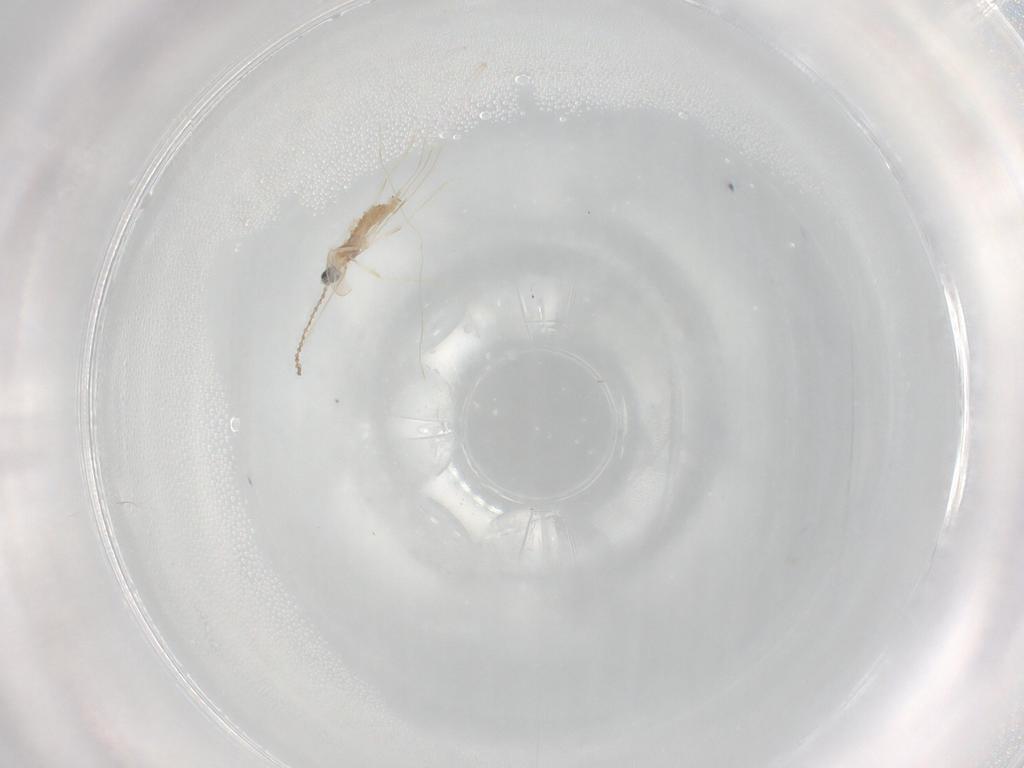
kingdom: Animalia
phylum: Arthropoda
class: Insecta
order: Diptera
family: Cecidomyiidae
